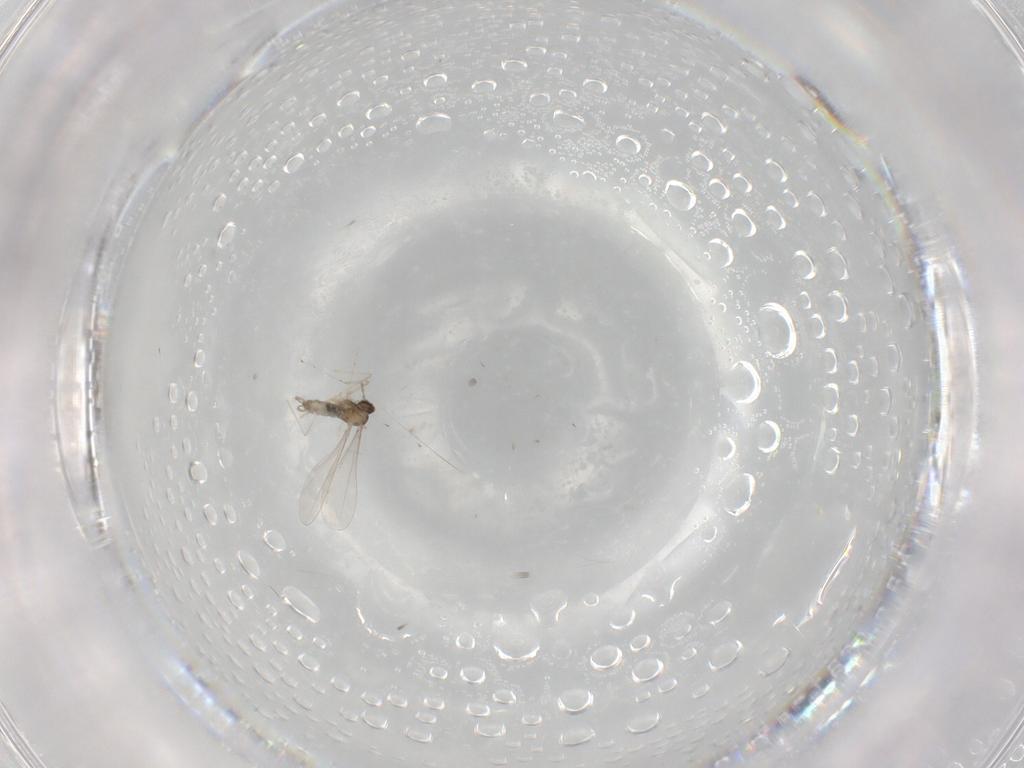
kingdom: Animalia
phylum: Arthropoda
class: Insecta
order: Diptera
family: Cecidomyiidae
